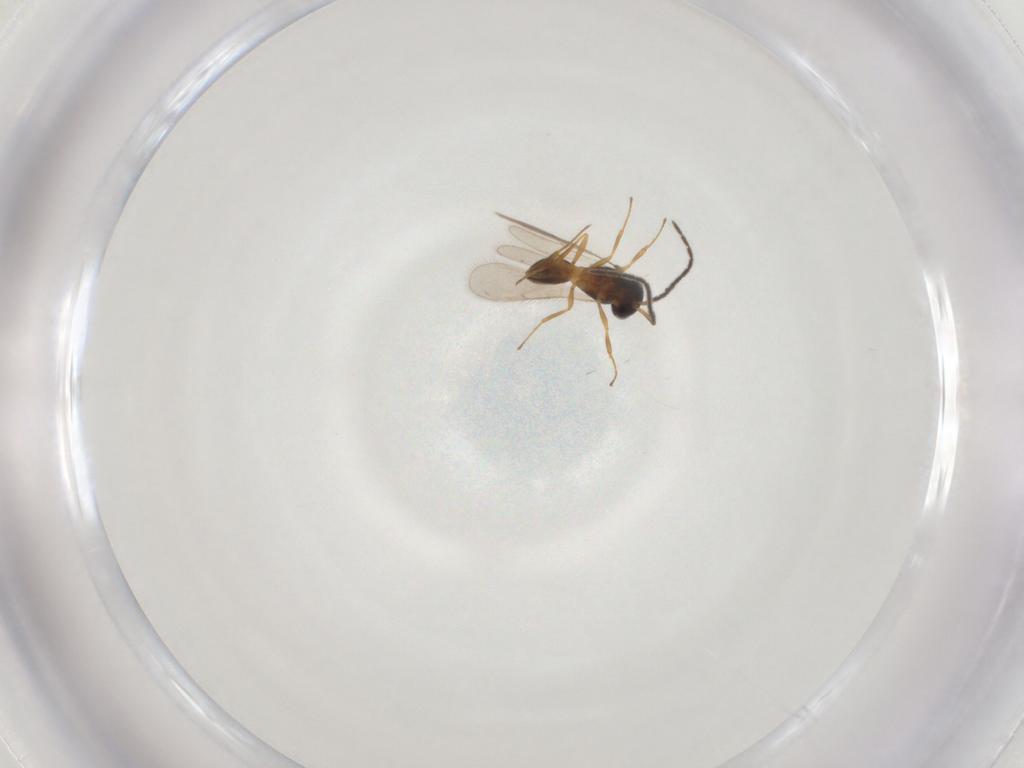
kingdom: Animalia
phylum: Arthropoda
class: Insecta
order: Hymenoptera
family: Scelionidae
